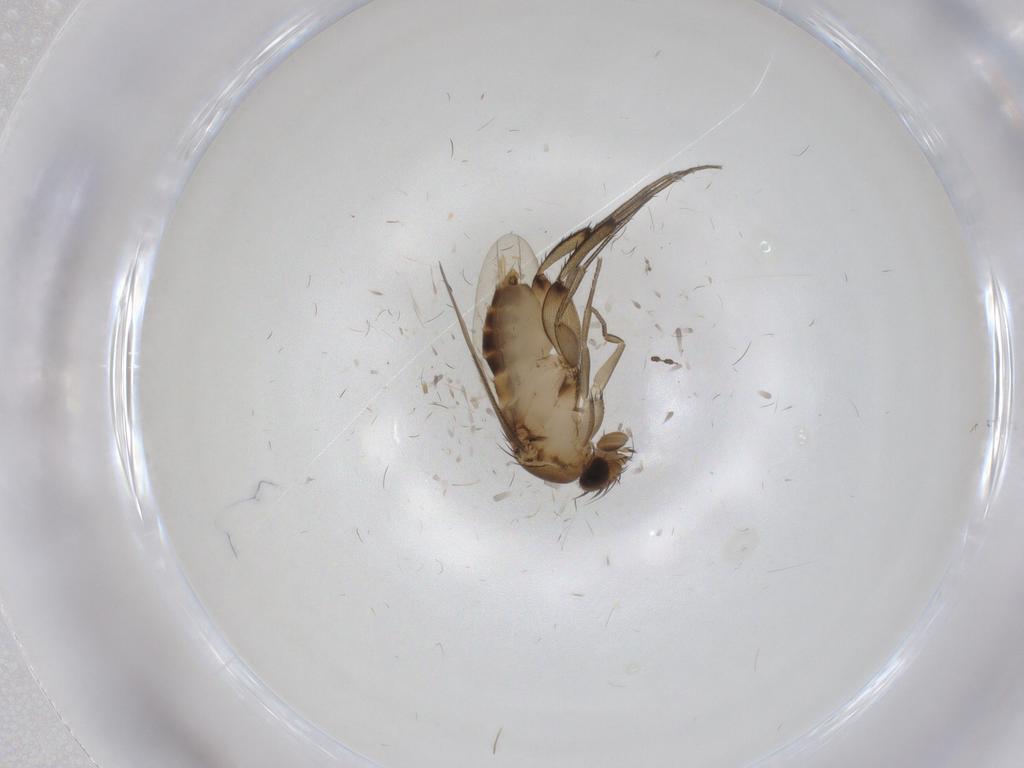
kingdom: Animalia
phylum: Arthropoda
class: Insecta
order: Diptera
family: Phoridae
